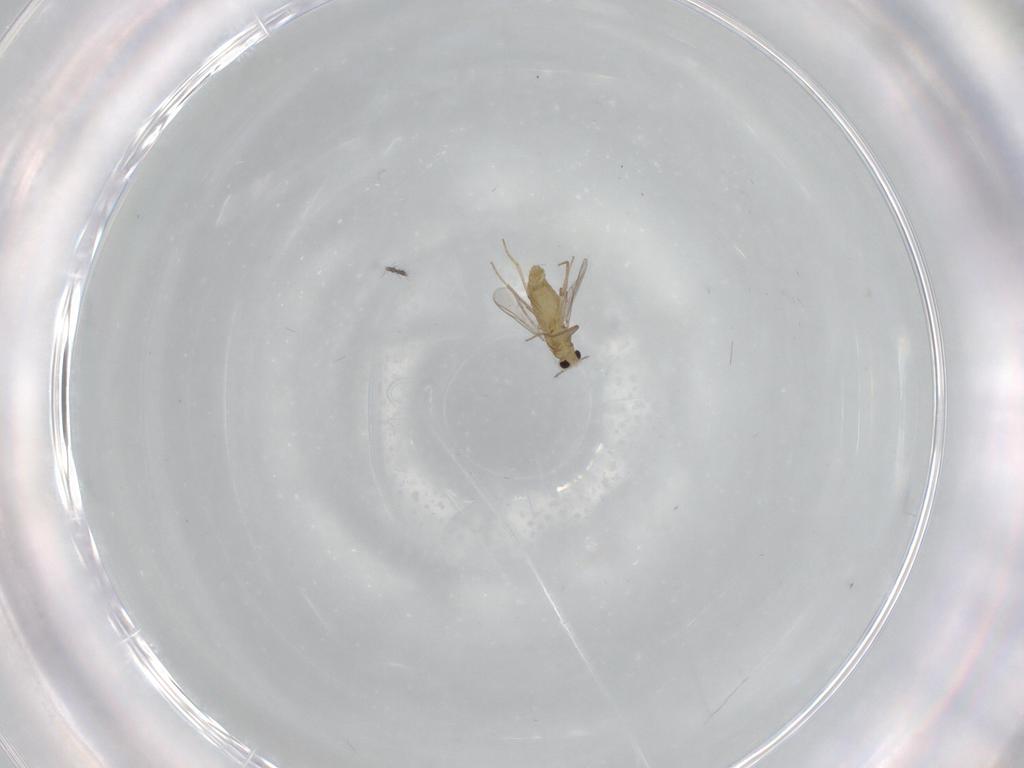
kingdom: Animalia
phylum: Arthropoda
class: Insecta
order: Diptera
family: Chironomidae
